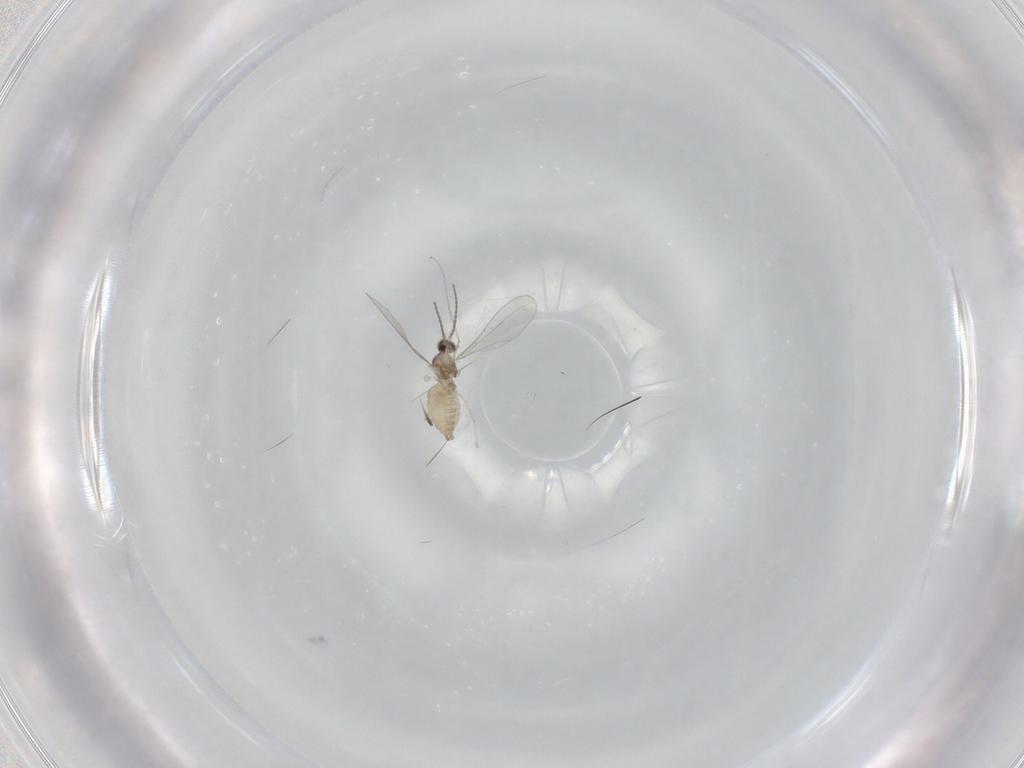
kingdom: Animalia
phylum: Arthropoda
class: Insecta
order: Diptera
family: Cecidomyiidae
